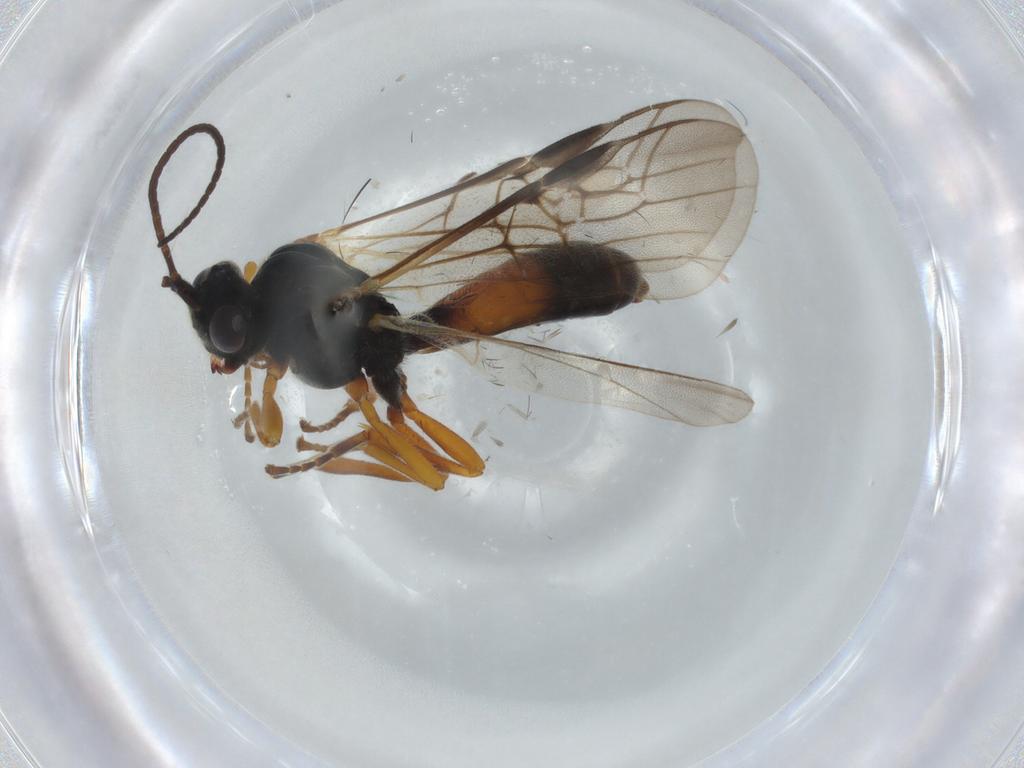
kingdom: Animalia
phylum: Arthropoda
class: Insecta
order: Hymenoptera
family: Braconidae
